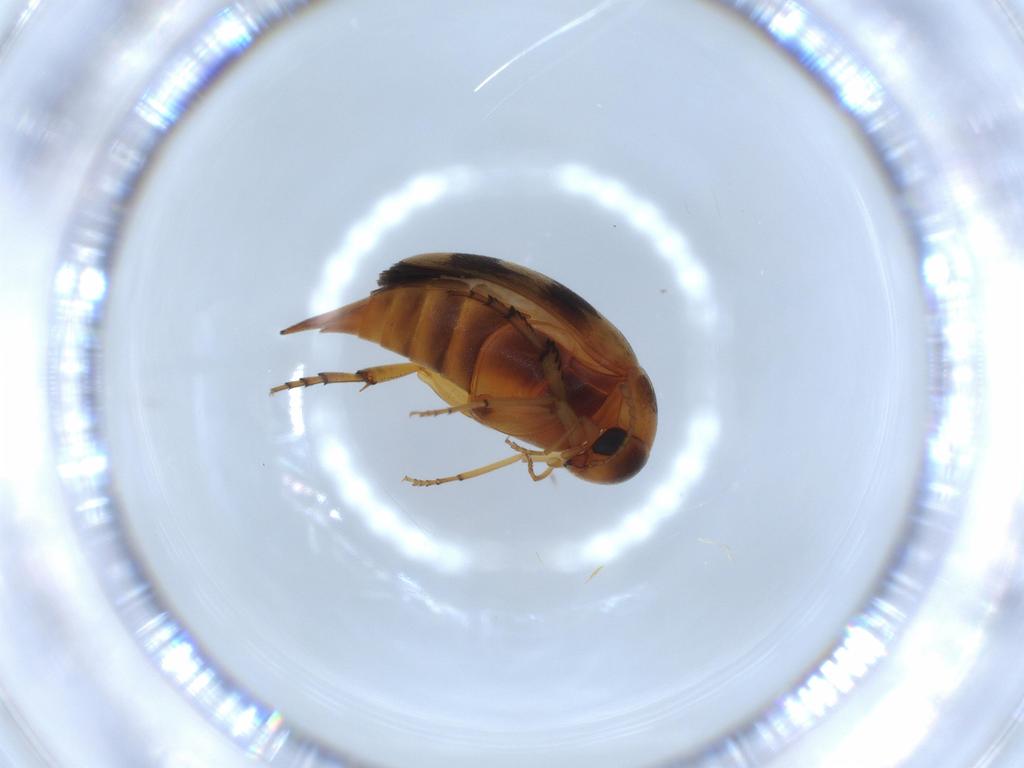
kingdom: Animalia
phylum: Arthropoda
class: Insecta
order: Coleoptera
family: Mordellidae
